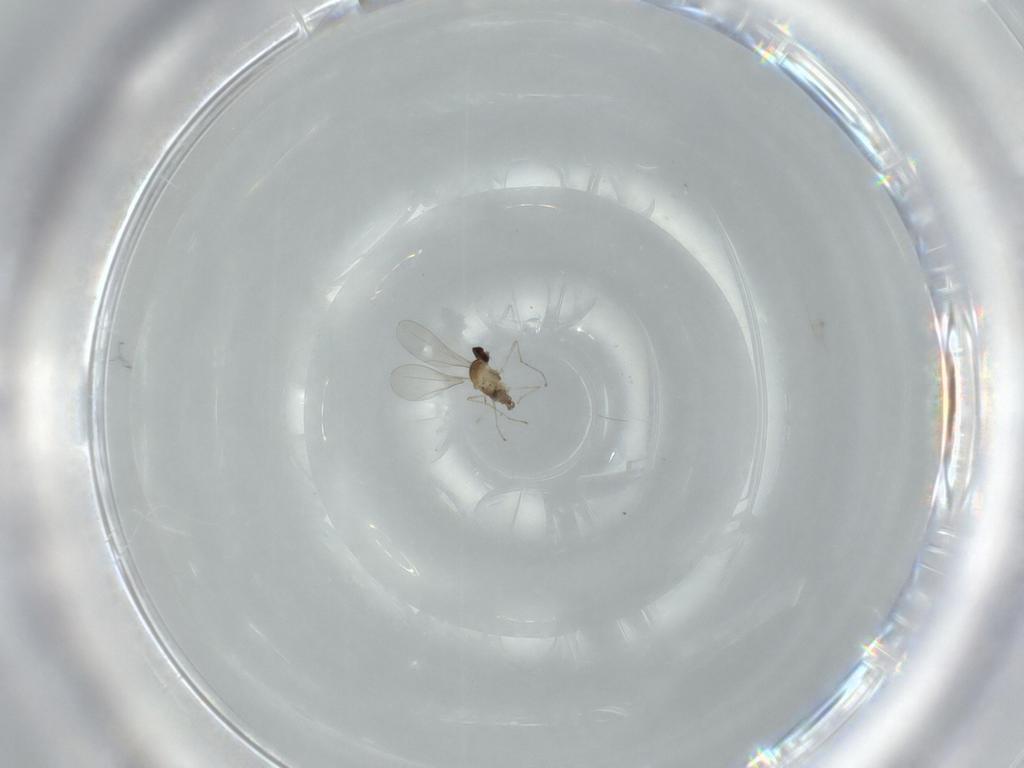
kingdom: Animalia
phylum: Arthropoda
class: Insecta
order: Diptera
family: Cecidomyiidae
